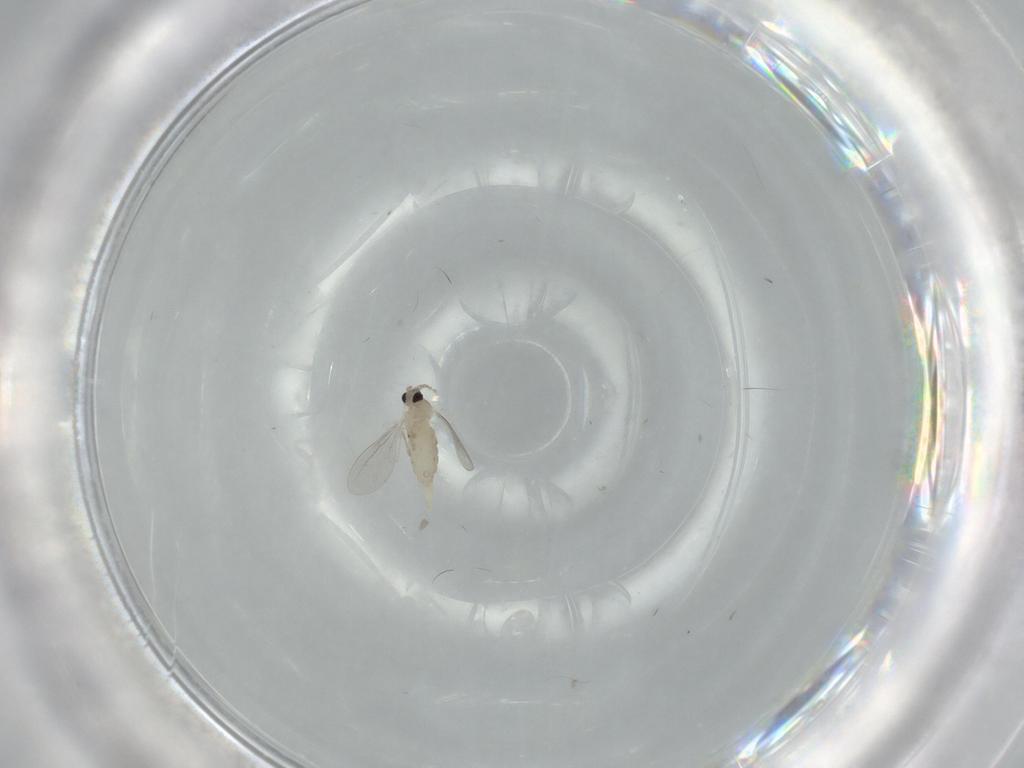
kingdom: Animalia
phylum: Arthropoda
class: Insecta
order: Diptera
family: Cecidomyiidae
